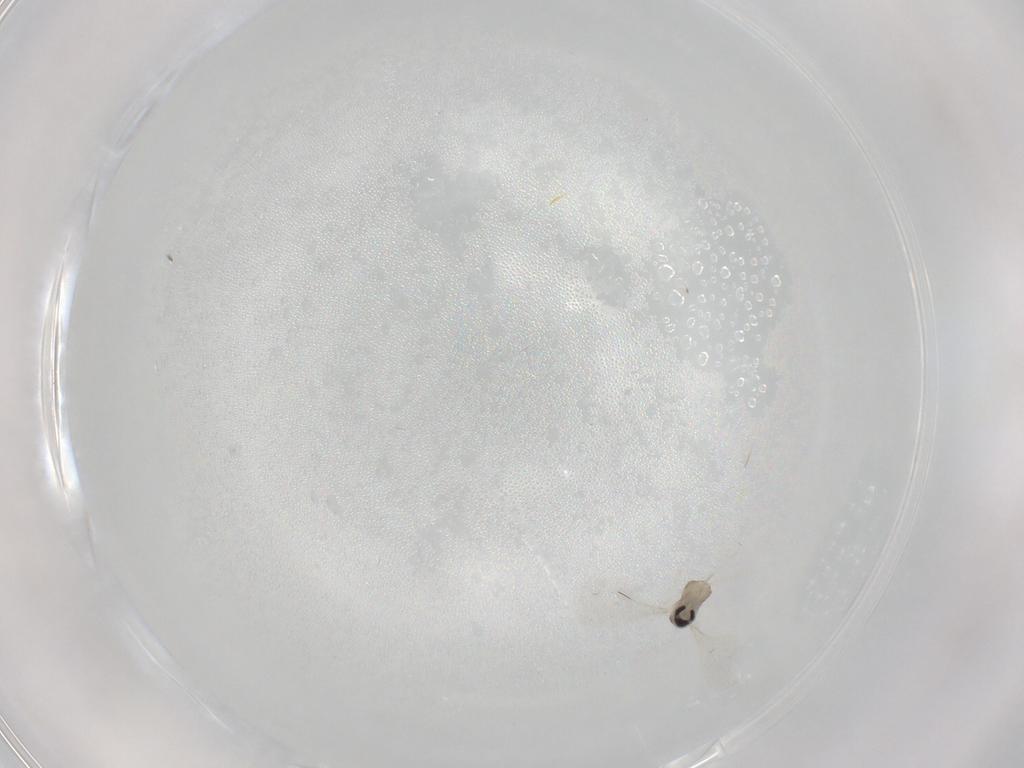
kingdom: Animalia
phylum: Arthropoda
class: Insecta
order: Diptera
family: Cecidomyiidae
